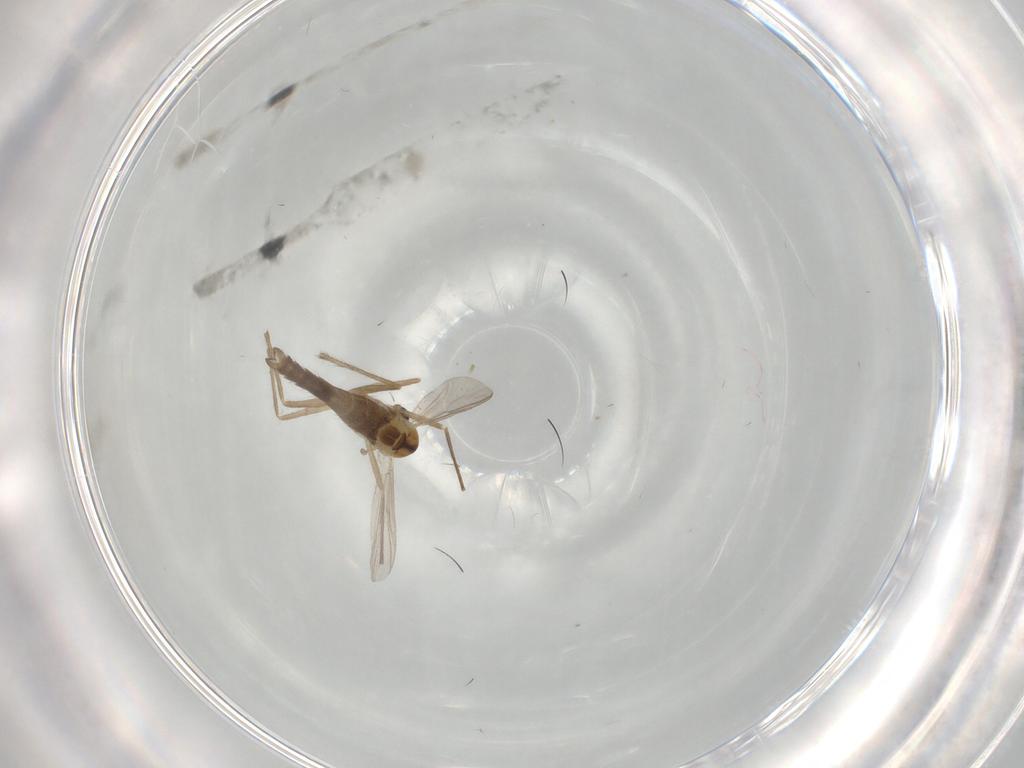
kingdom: Animalia
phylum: Arthropoda
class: Insecta
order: Diptera
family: Chironomidae
